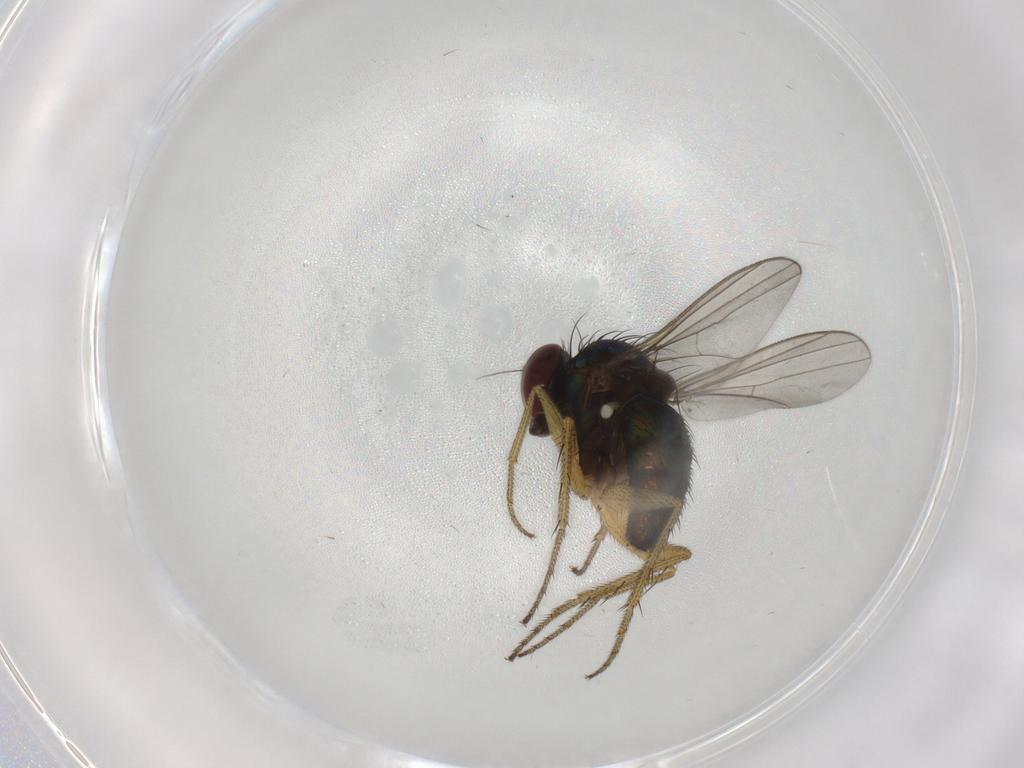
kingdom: Animalia
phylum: Arthropoda
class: Insecta
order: Diptera
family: Dolichopodidae
